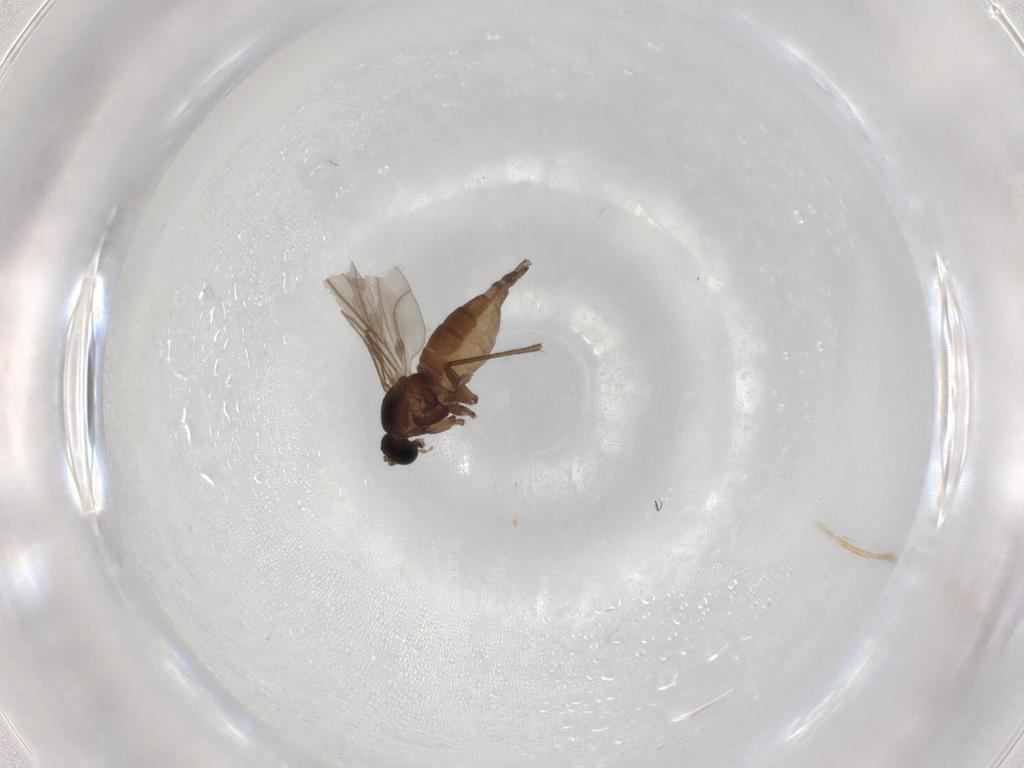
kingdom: Animalia
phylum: Arthropoda
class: Insecta
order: Diptera
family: Sciaridae
